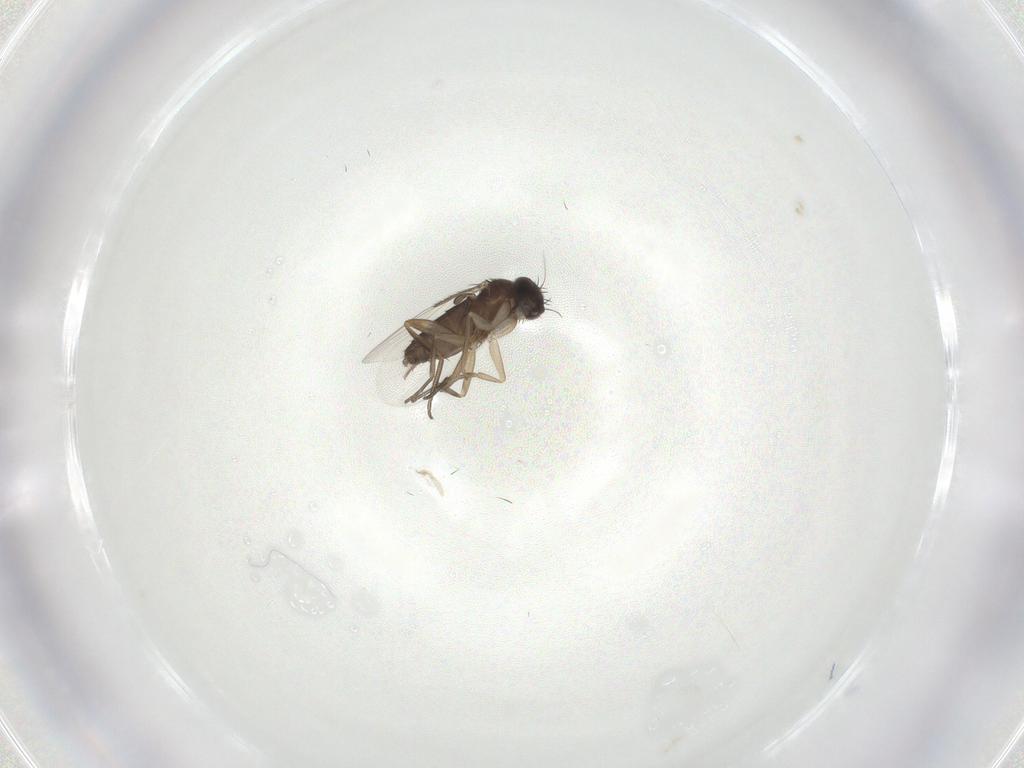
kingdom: Animalia
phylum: Arthropoda
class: Insecta
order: Diptera
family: Phoridae
